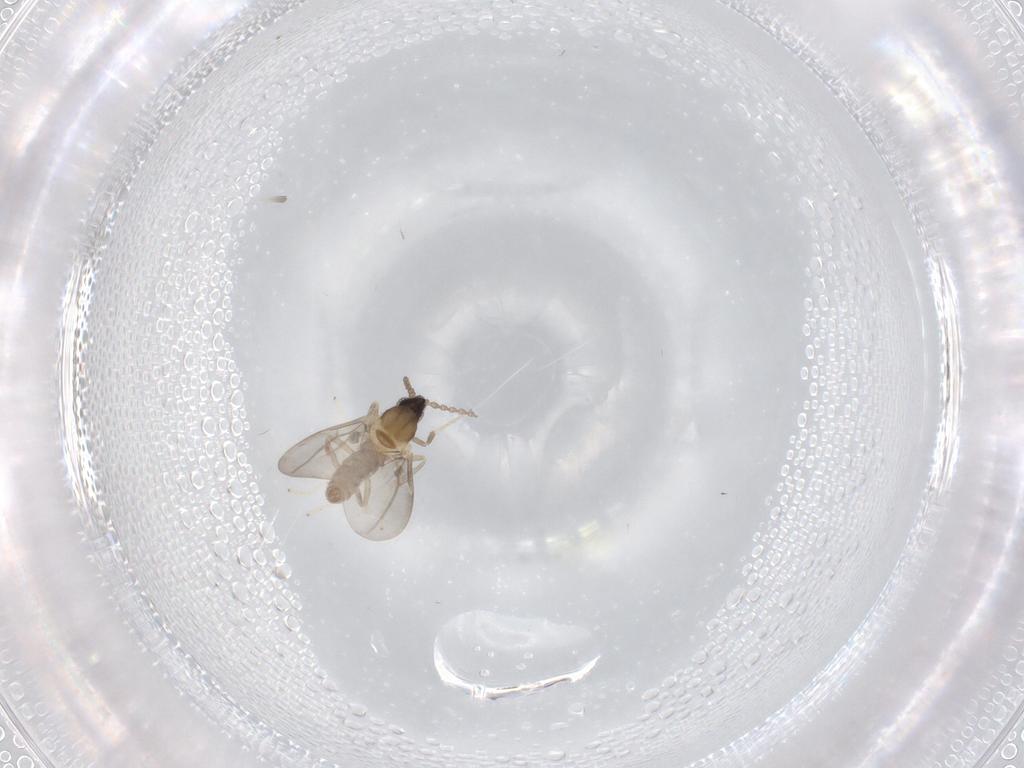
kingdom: Animalia
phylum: Arthropoda
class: Insecta
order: Diptera
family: Cecidomyiidae
